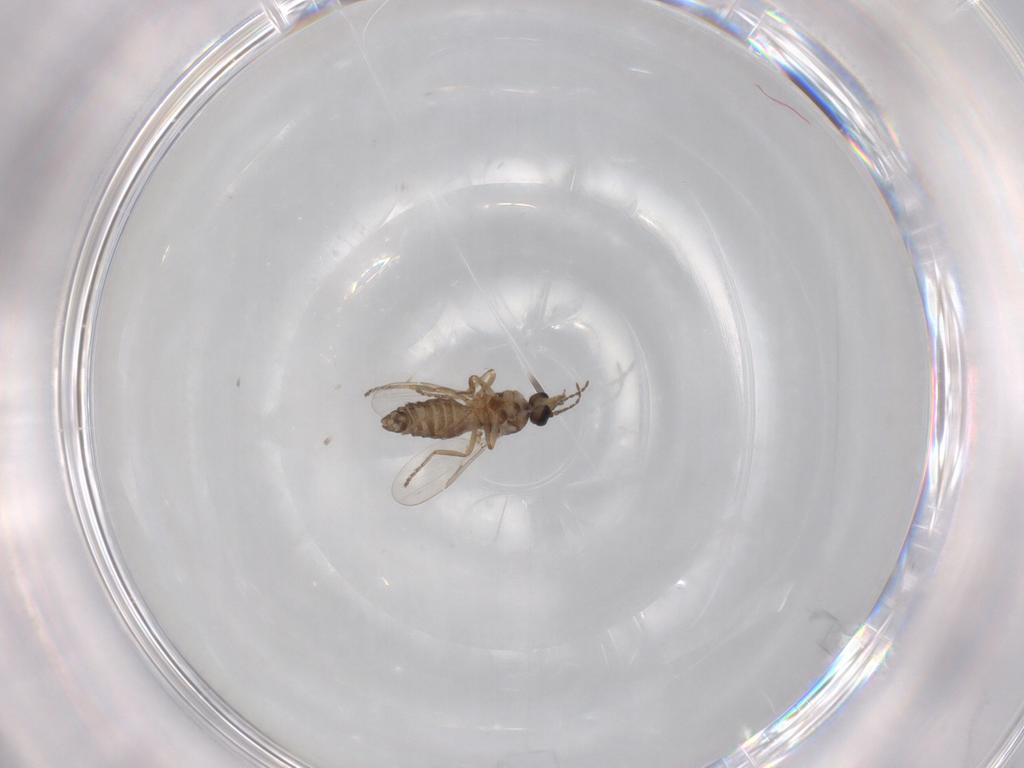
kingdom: Animalia
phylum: Arthropoda
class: Insecta
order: Diptera
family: Ceratopogonidae
